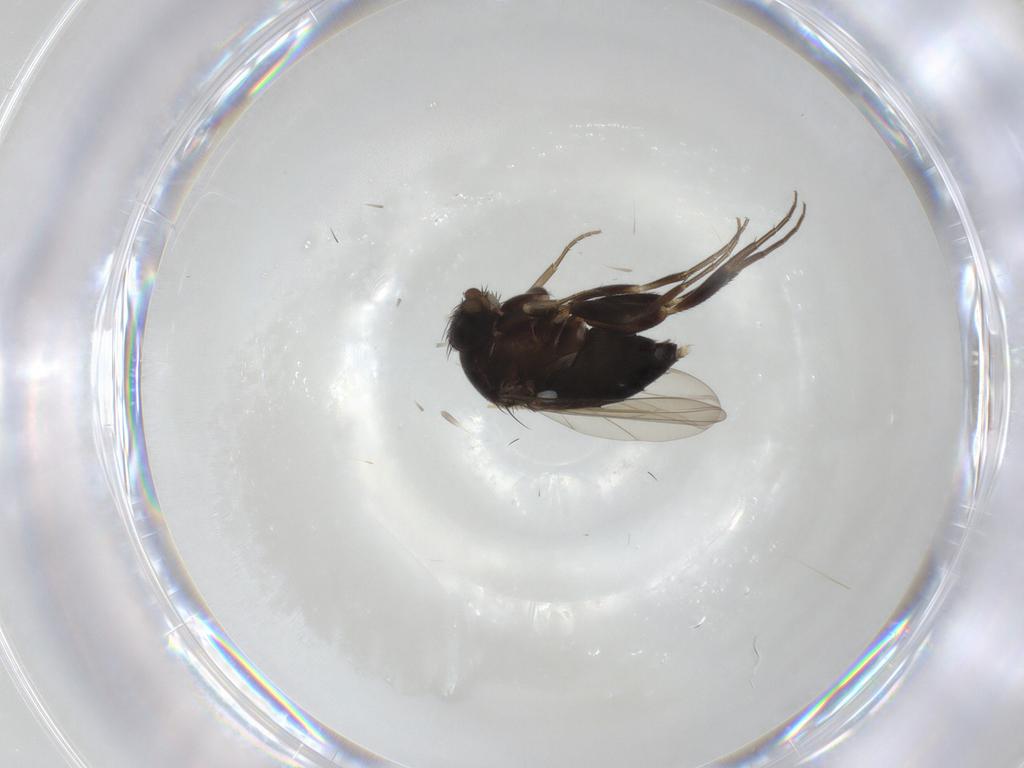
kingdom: Animalia
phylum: Arthropoda
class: Insecta
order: Diptera
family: Phoridae
